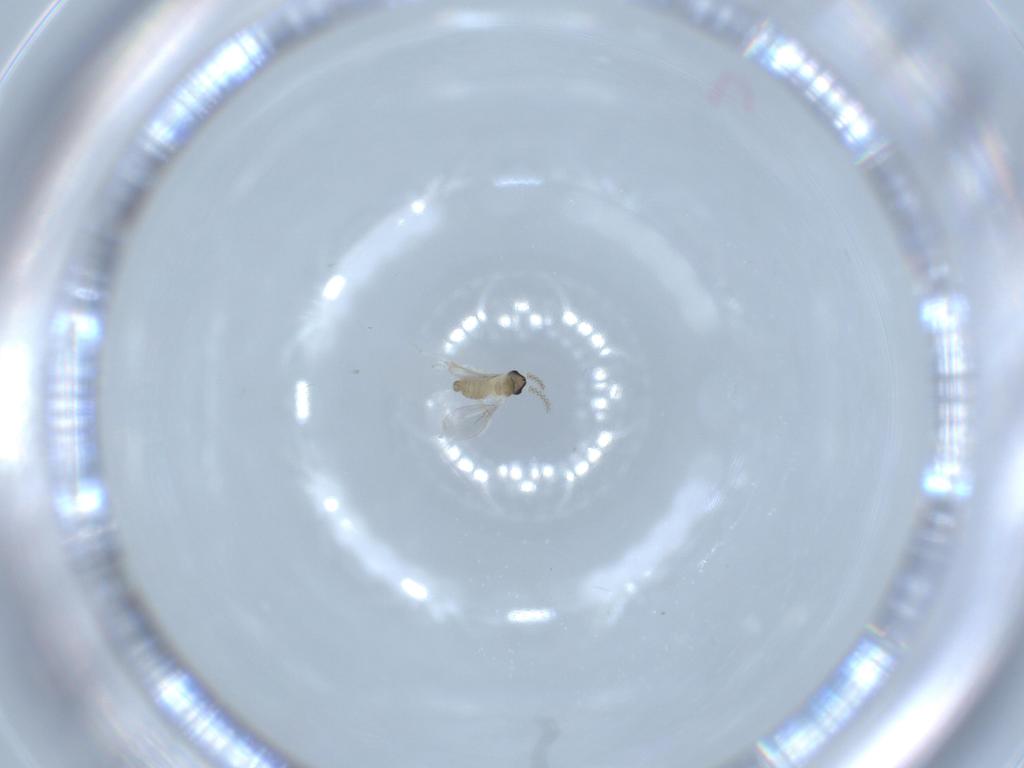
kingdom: Animalia
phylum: Arthropoda
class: Insecta
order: Diptera
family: Cecidomyiidae
